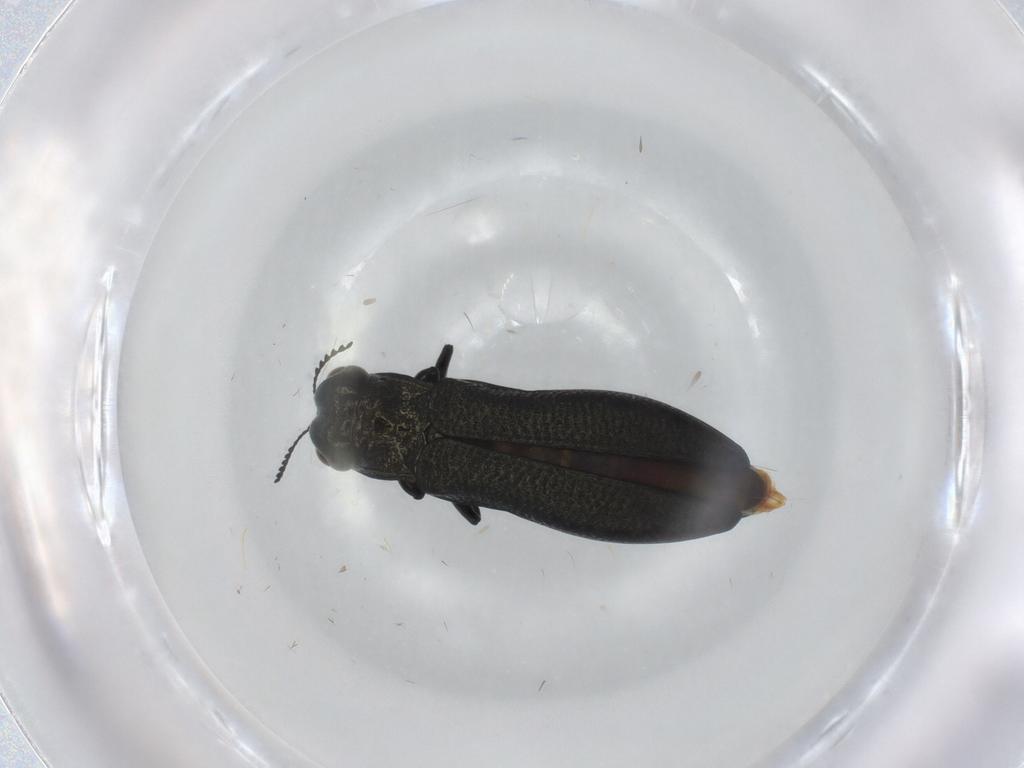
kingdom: Animalia
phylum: Arthropoda
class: Insecta
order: Coleoptera
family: Buprestidae
